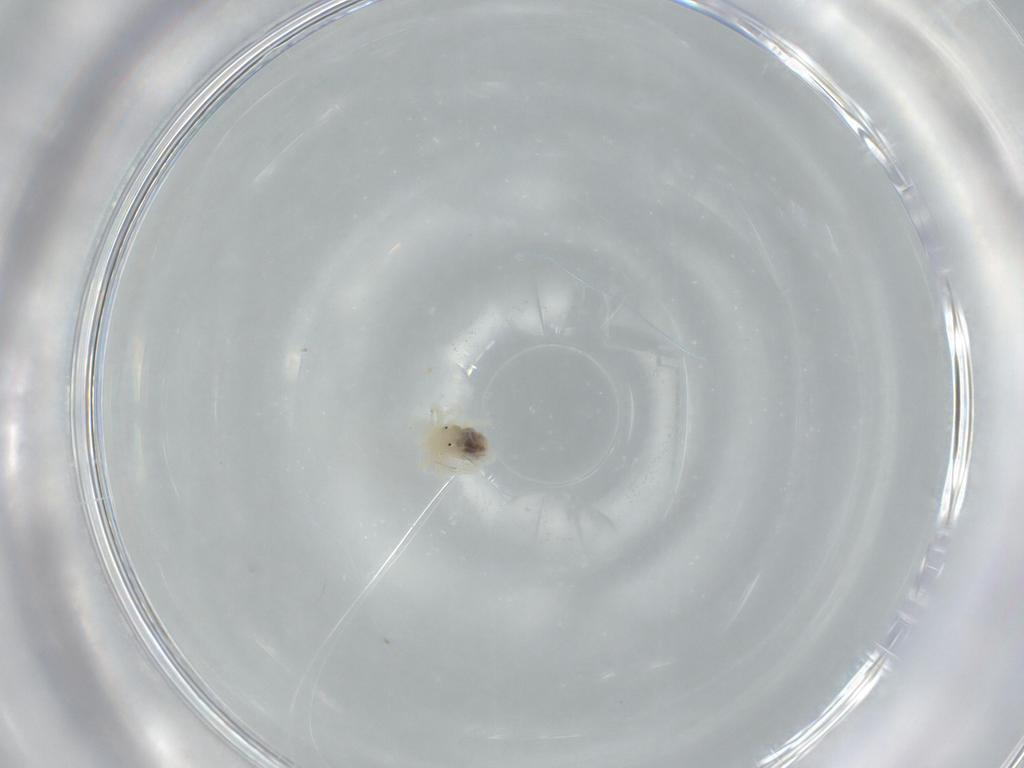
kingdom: Animalia
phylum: Arthropoda
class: Arachnida
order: Trombidiformes
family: Anystidae
